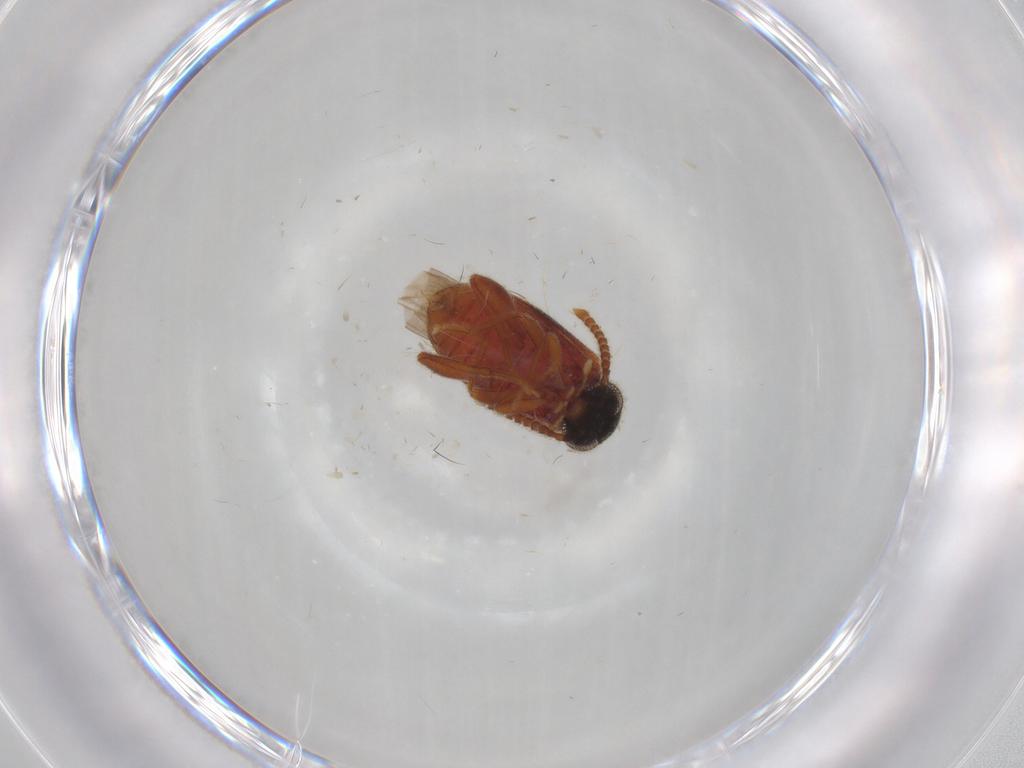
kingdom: Animalia
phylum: Arthropoda
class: Insecta
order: Coleoptera
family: Aderidae
